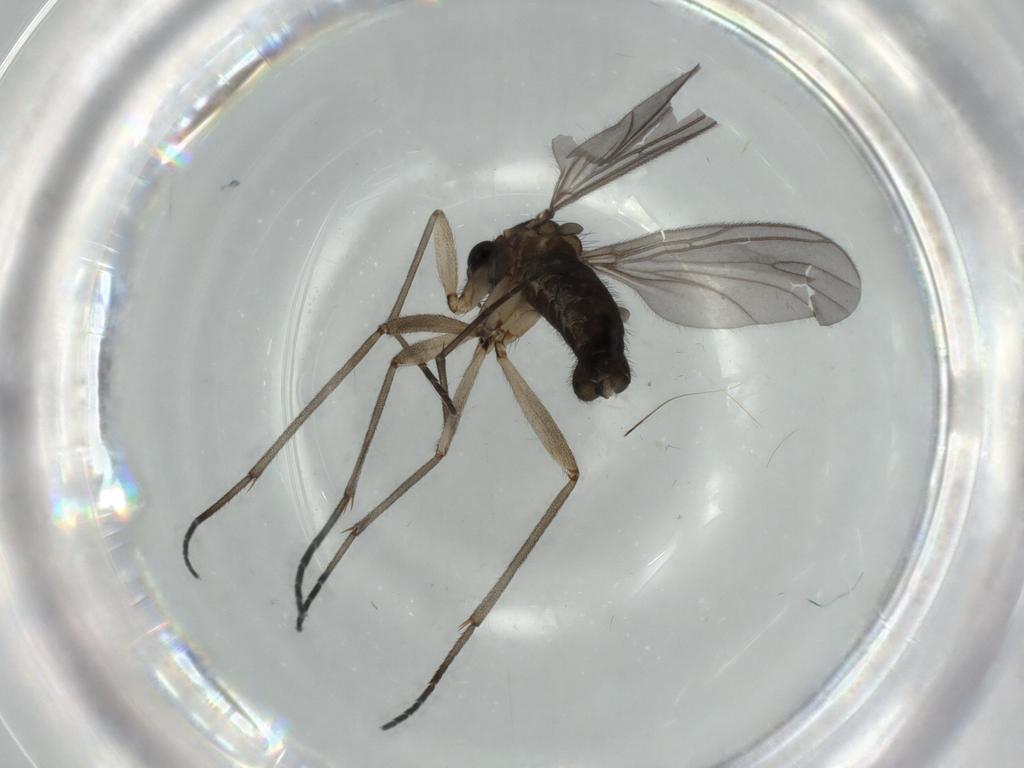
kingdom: Animalia
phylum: Arthropoda
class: Insecta
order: Diptera
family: Sciaridae
